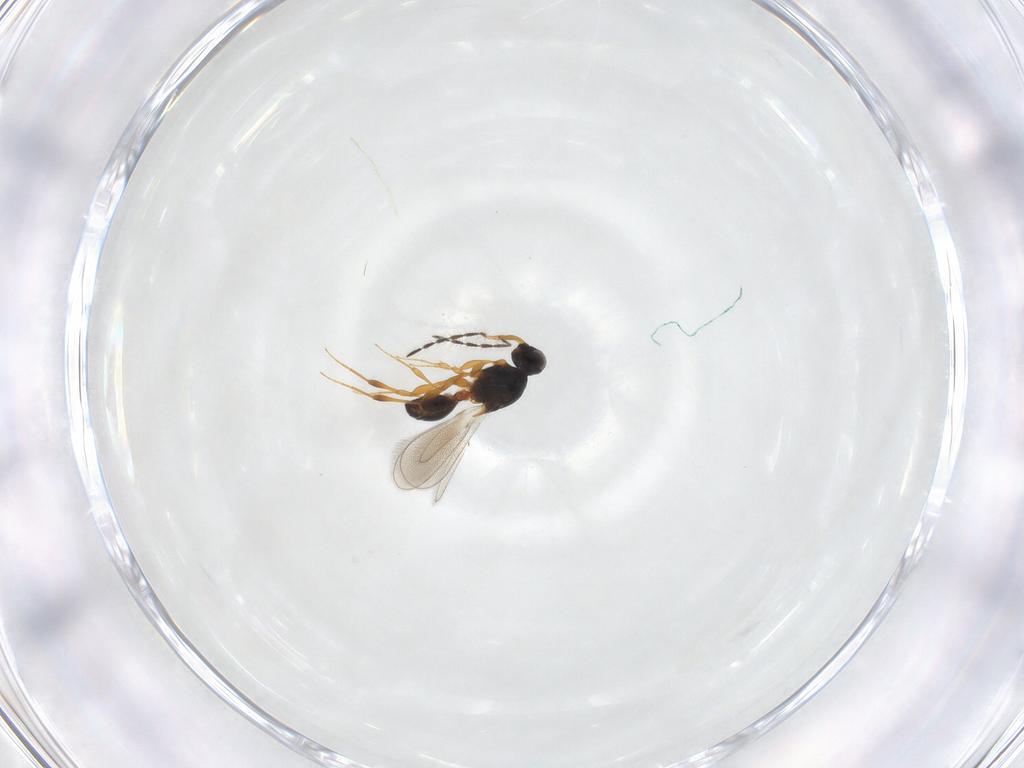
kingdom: Animalia
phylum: Arthropoda
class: Insecta
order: Hymenoptera
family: Platygastridae
